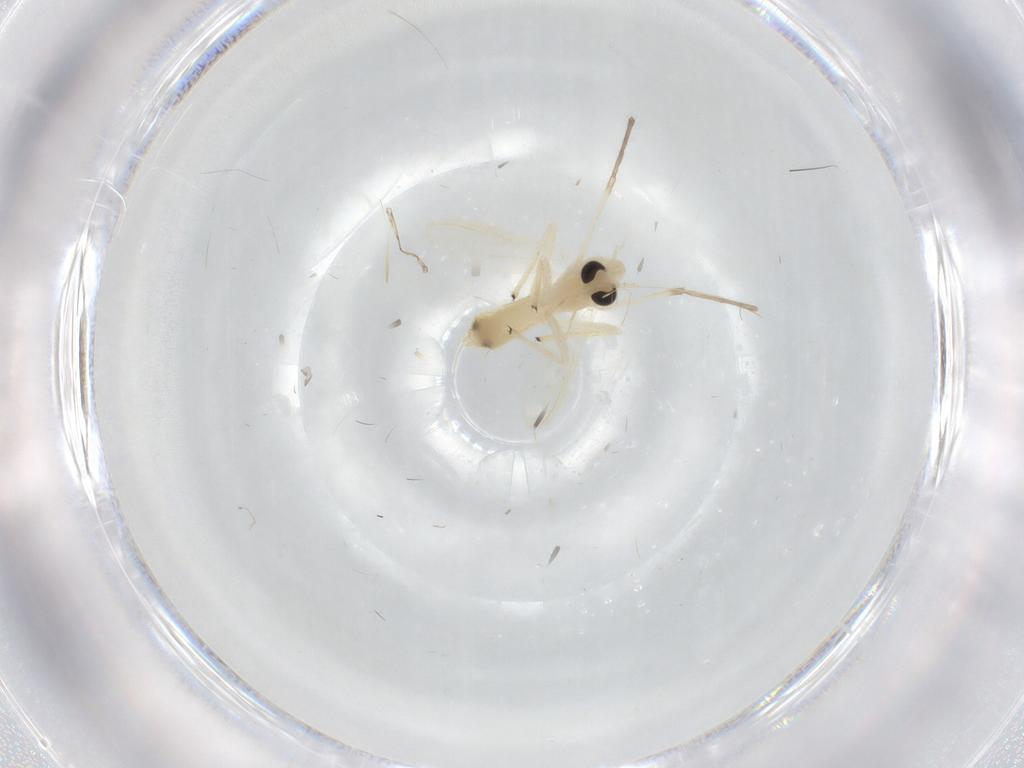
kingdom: Animalia
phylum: Arthropoda
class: Insecta
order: Diptera
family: Chironomidae
